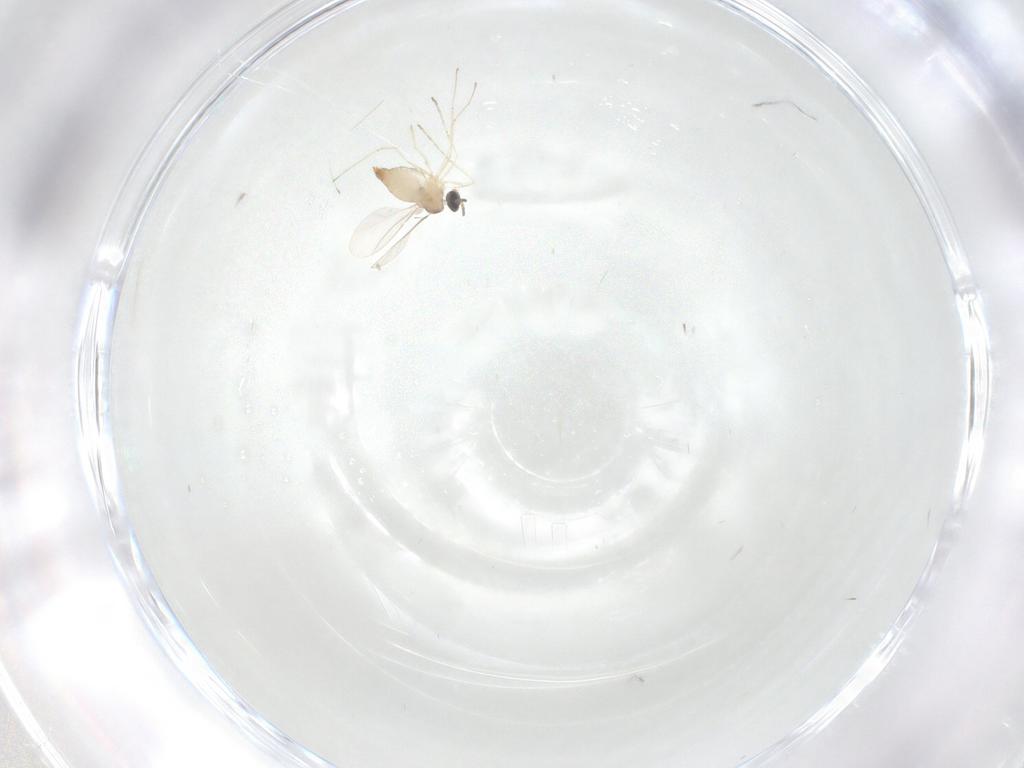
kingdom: Animalia
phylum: Arthropoda
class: Insecta
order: Diptera
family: Cecidomyiidae
